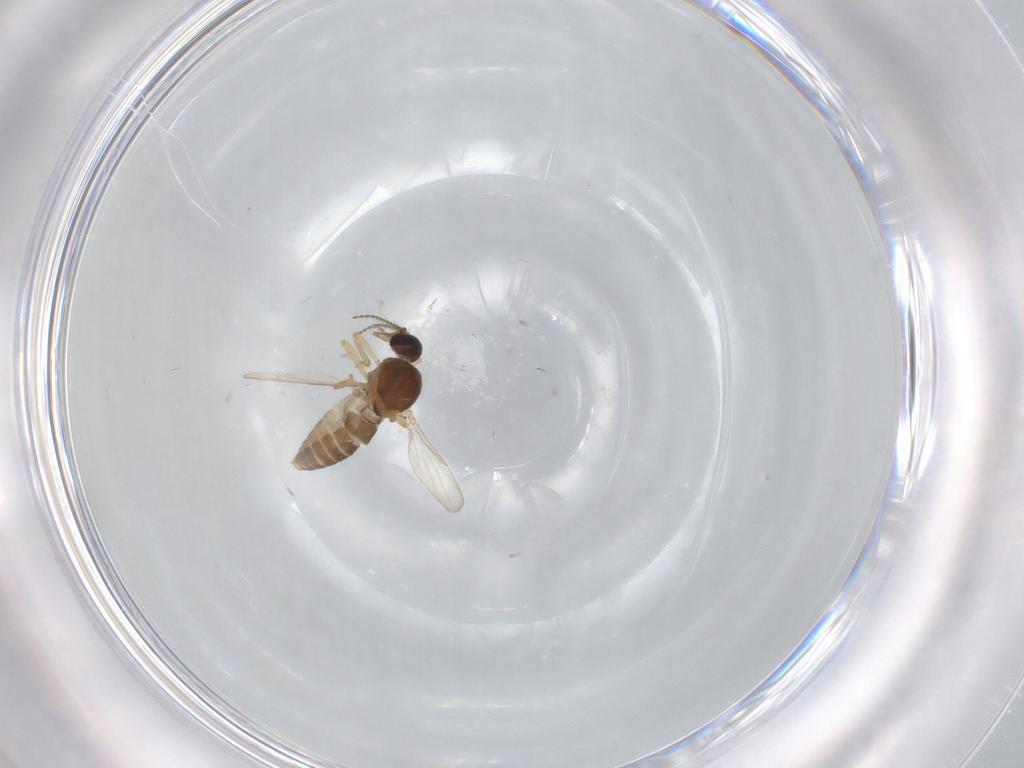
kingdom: Animalia
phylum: Arthropoda
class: Insecta
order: Diptera
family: Ceratopogonidae
